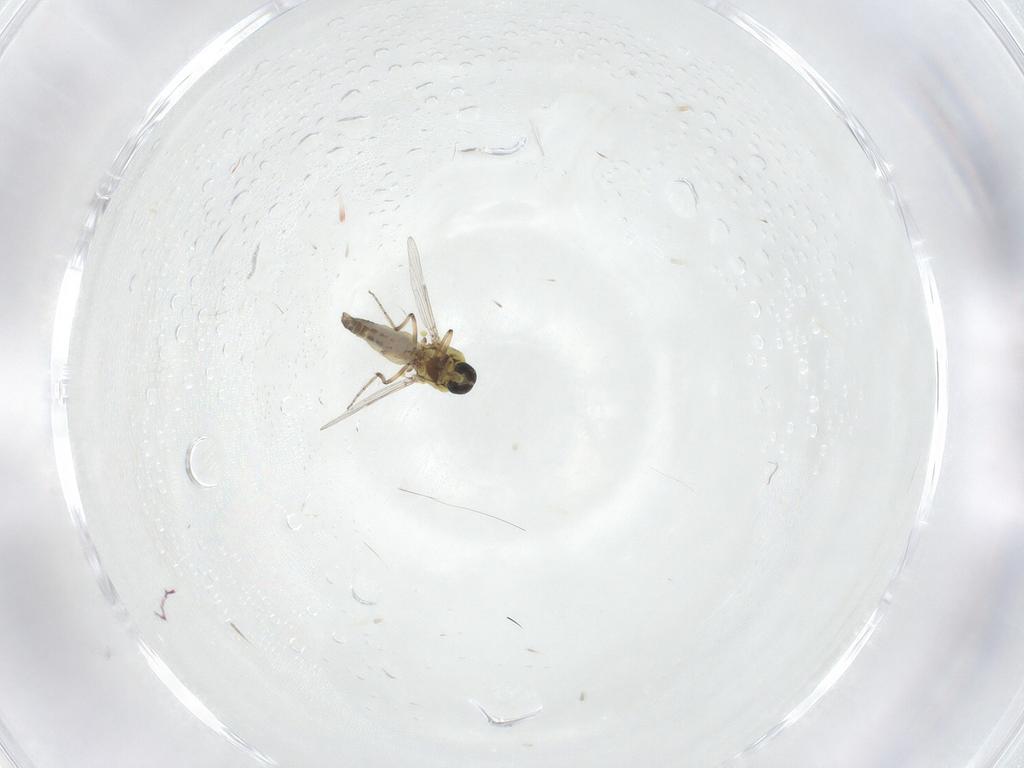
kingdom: Animalia
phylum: Arthropoda
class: Insecta
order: Diptera
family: Ceratopogonidae
